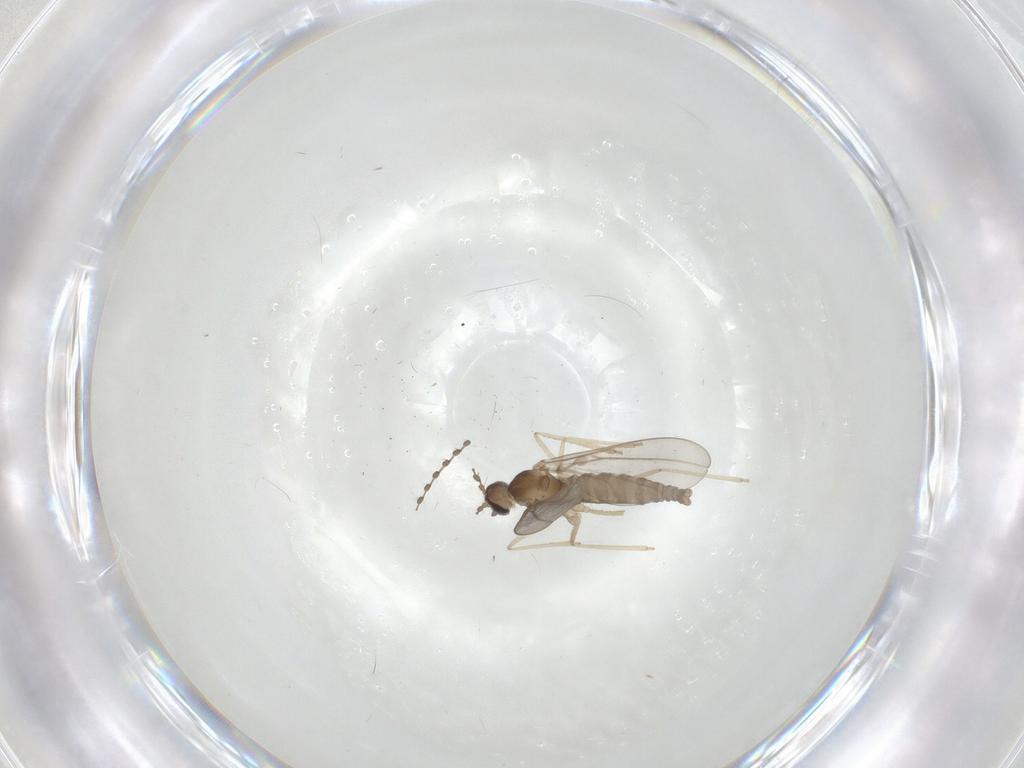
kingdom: Animalia
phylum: Arthropoda
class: Insecta
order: Diptera
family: Cecidomyiidae
